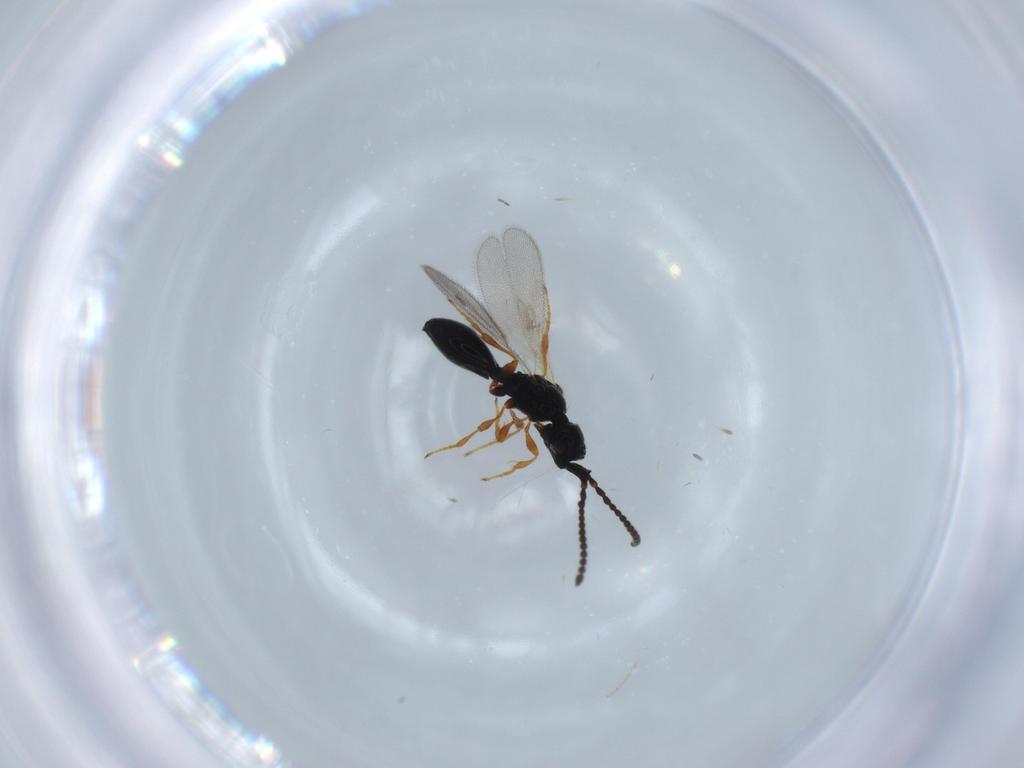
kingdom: Animalia
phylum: Arthropoda
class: Insecta
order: Hymenoptera
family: Diapriidae
